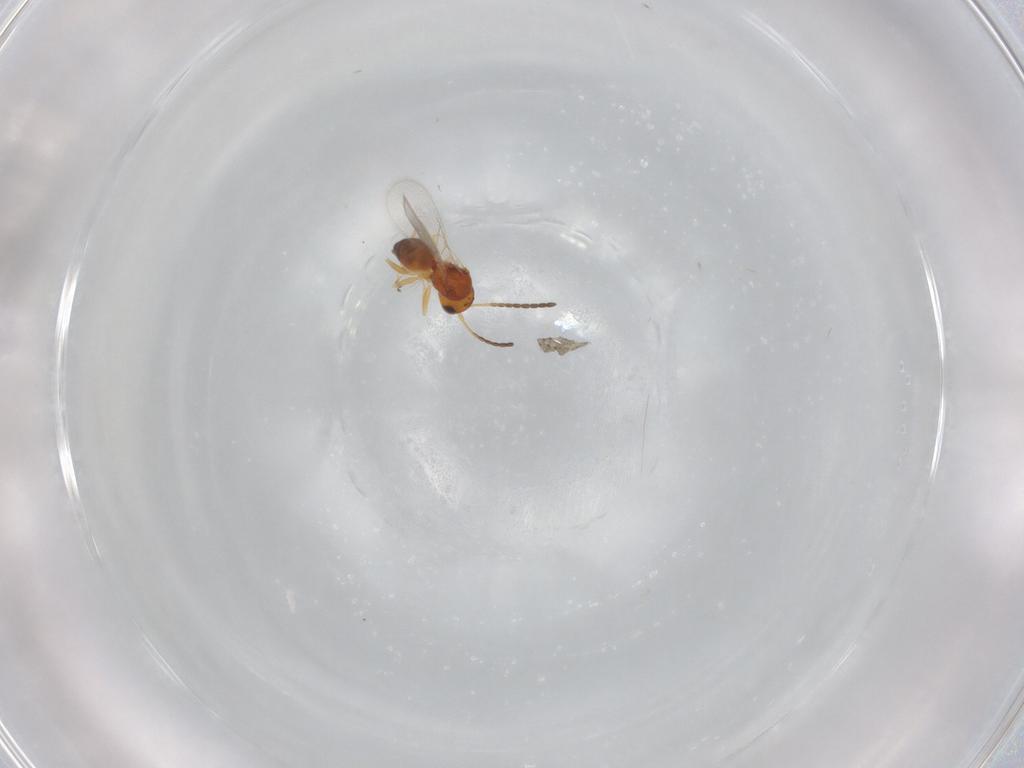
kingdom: Animalia
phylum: Arthropoda
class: Insecta
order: Hymenoptera
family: Figitidae
